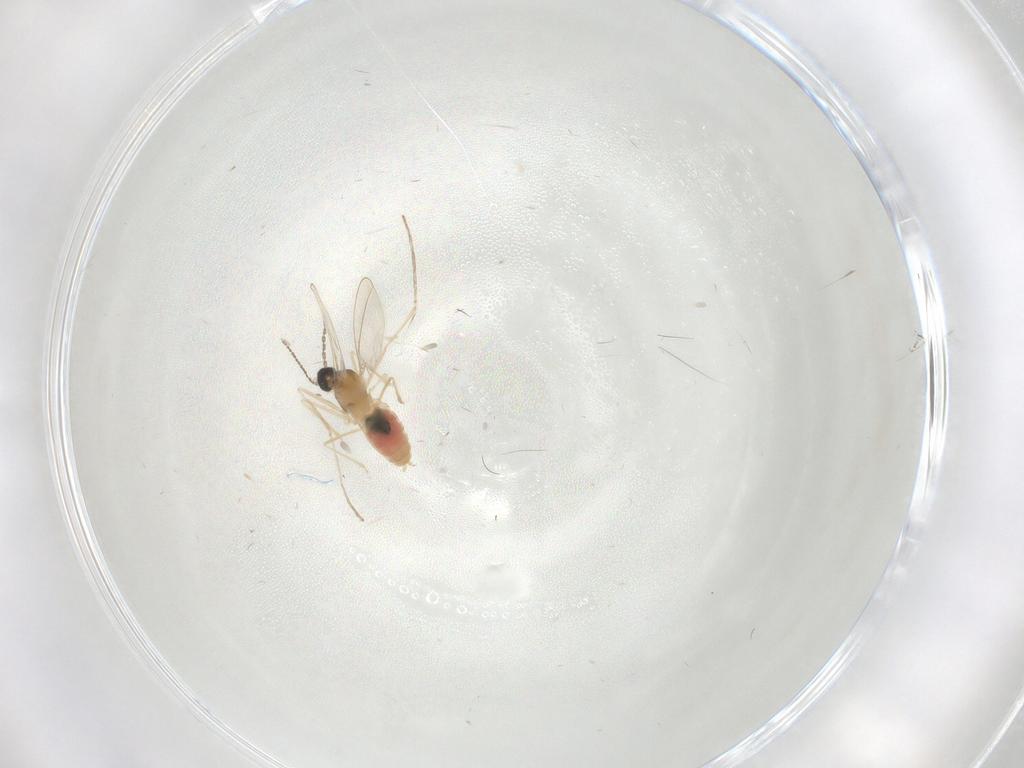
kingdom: Animalia
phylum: Arthropoda
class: Insecta
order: Diptera
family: Cecidomyiidae
